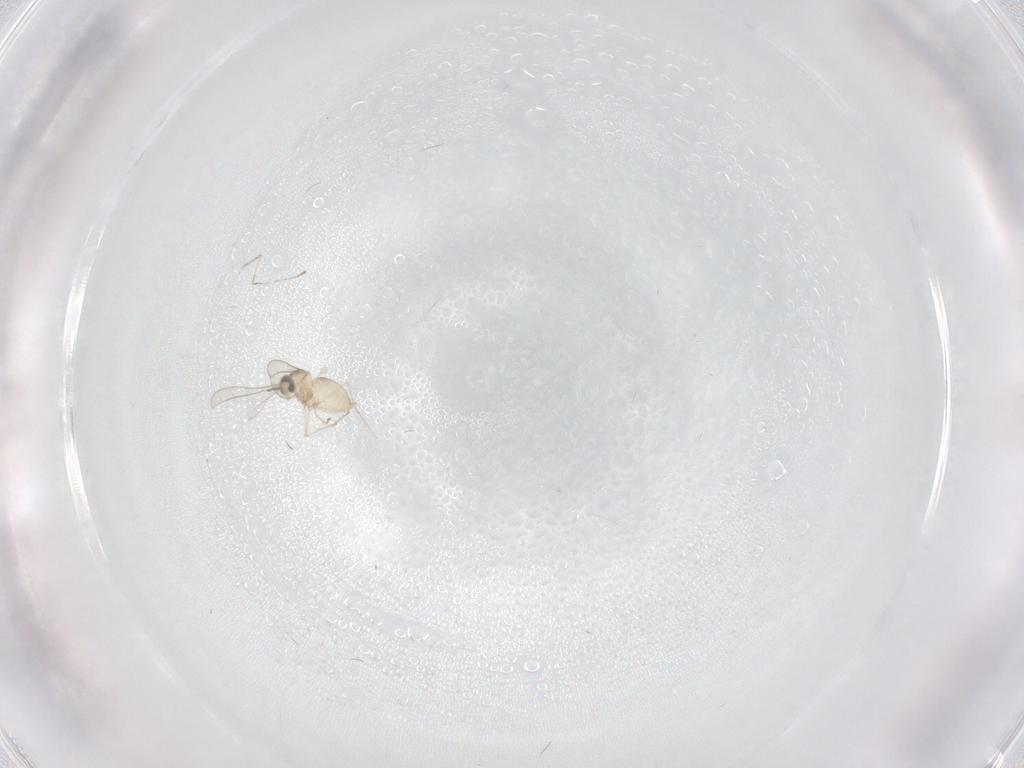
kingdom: Animalia
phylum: Arthropoda
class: Insecta
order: Diptera
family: Cecidomyiidae
